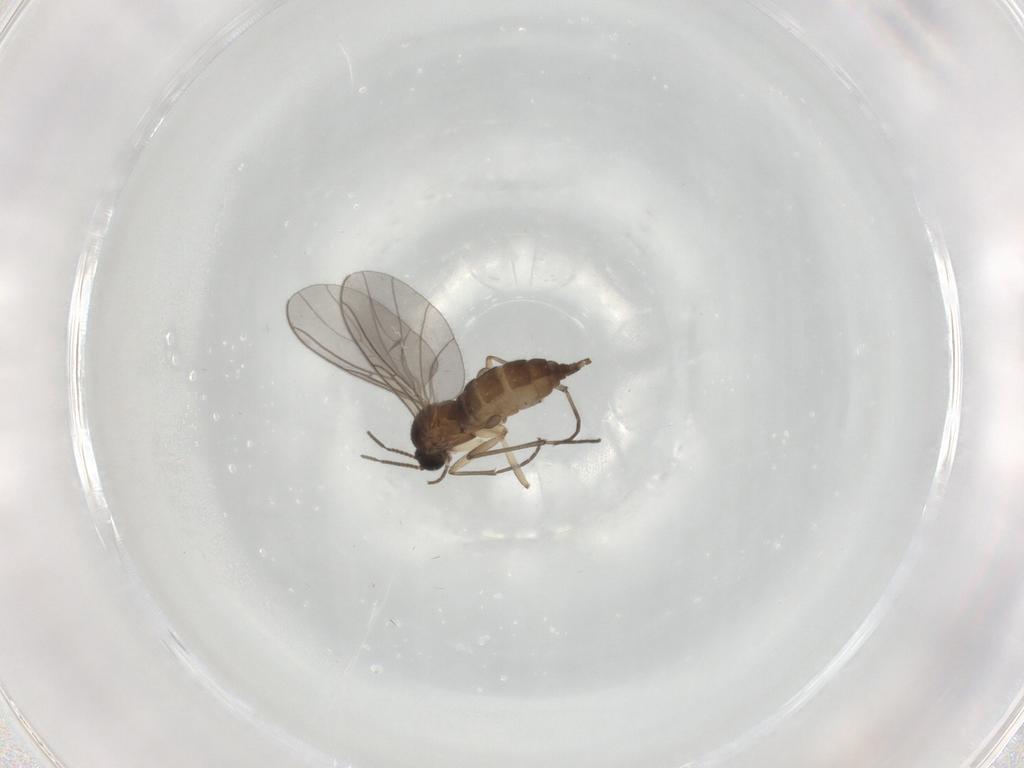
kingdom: Animalia
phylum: Arthropoda
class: Insecta
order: Diptera
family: Sciaridae
